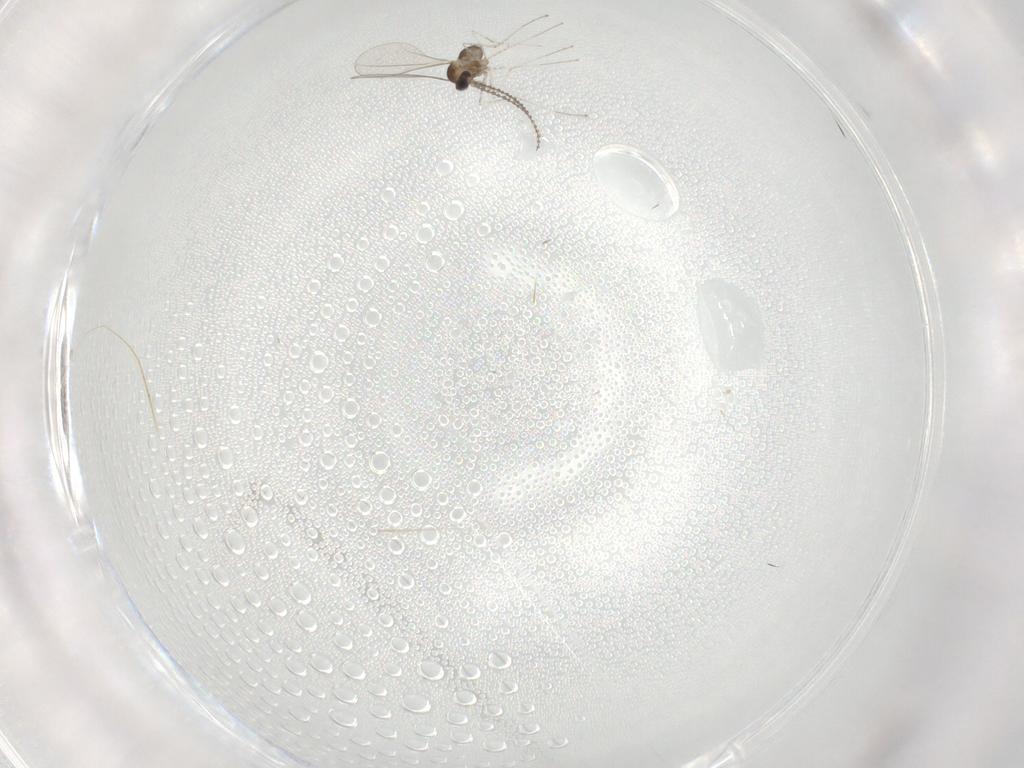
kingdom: Animalia
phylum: Arthropoda
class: Insecta
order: Diptera
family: Cecidomyiidae
